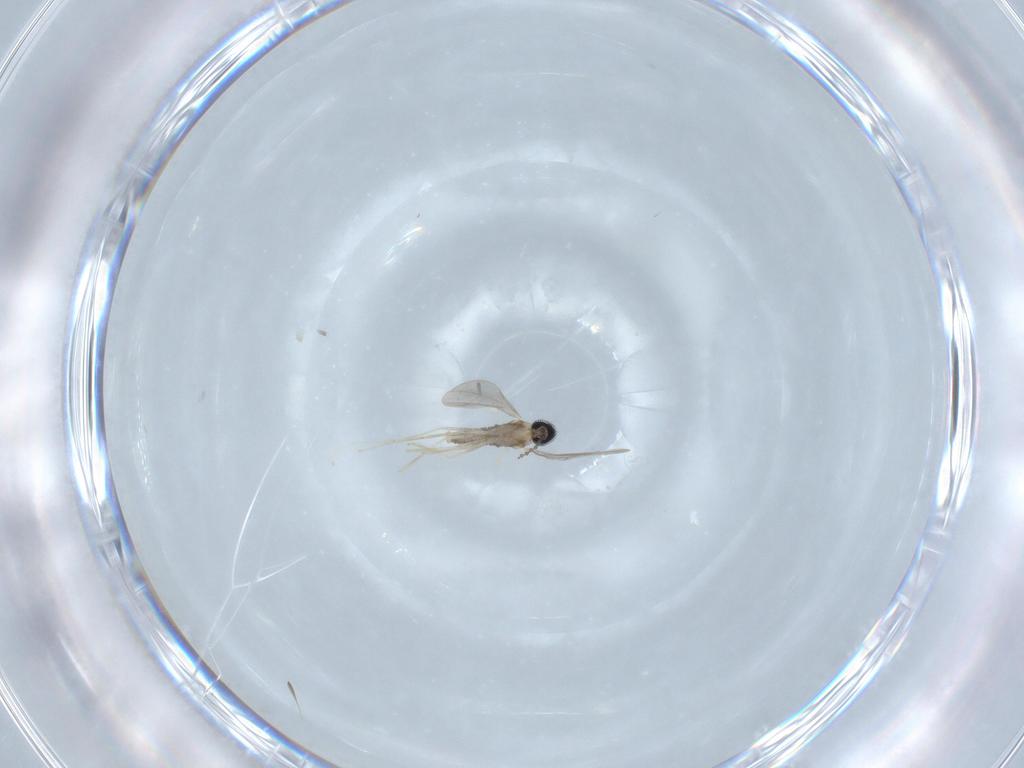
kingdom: Animalia
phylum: Arthropoda
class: Insecta
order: Diptera
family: Cecidomyiidae
